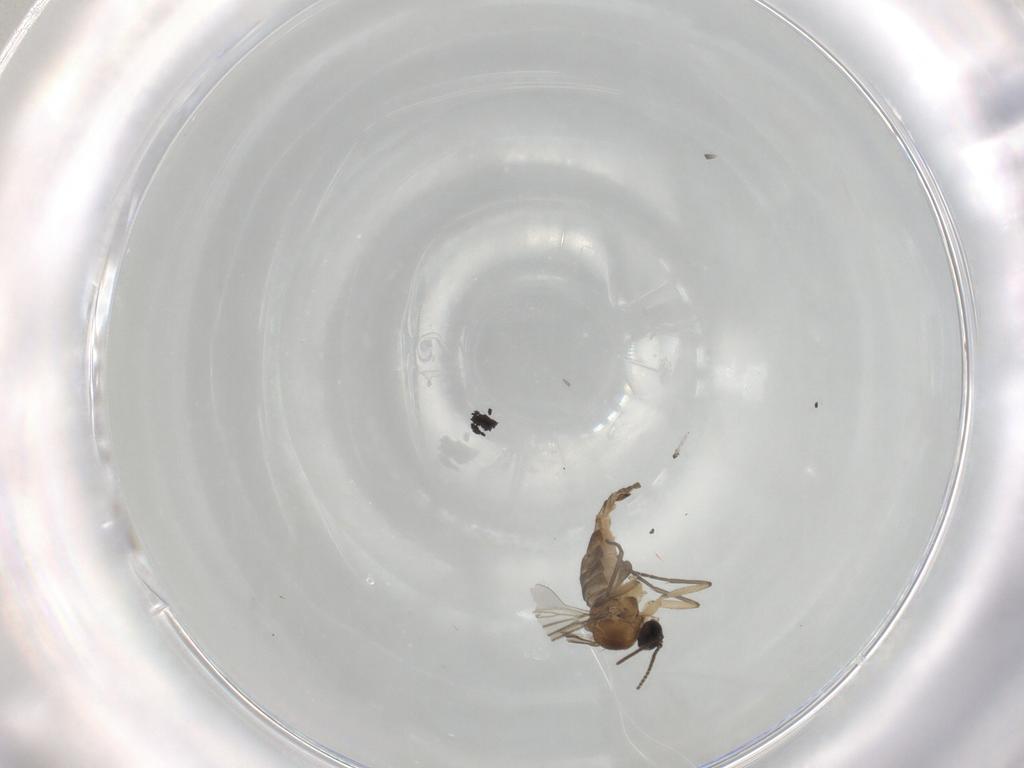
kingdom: Animalia
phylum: Arthropoda
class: Insecta
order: Diptera
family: Sciaridae
